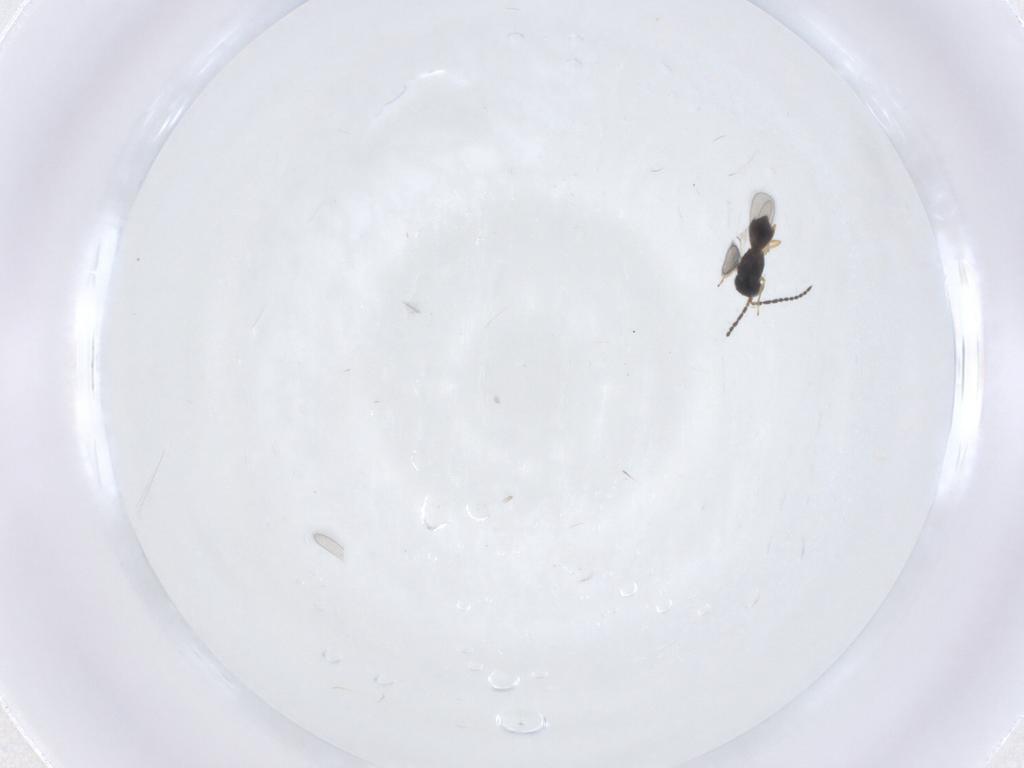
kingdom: Animalia
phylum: Arthropoda
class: Insecta
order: Hymenoptera
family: Scelionidae
